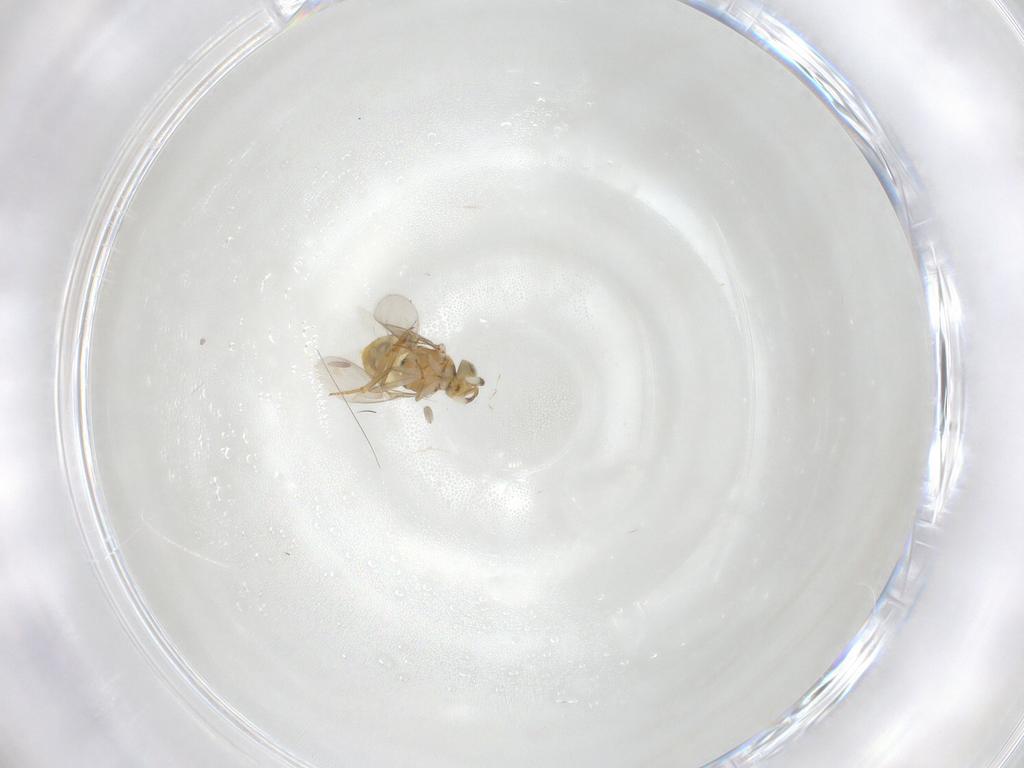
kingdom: Animalia
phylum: Arthropoda
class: Insecta
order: Hymenoptera
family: Encyrtidae
